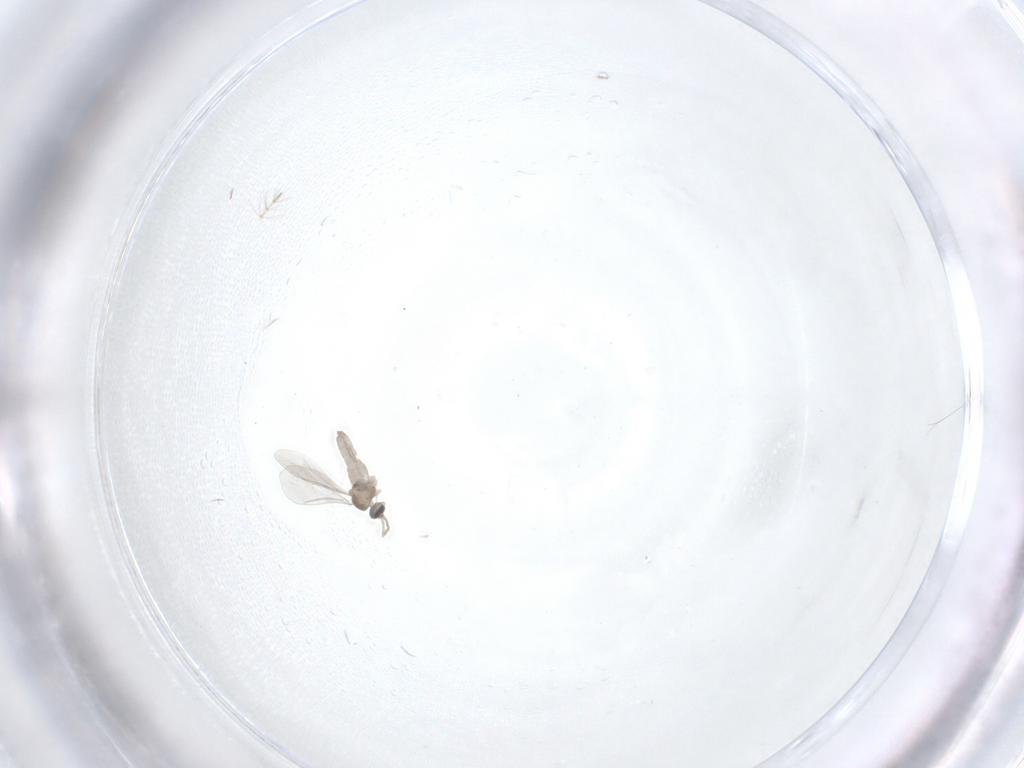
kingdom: Animalia
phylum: Arthropoda
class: Insecta
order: Diptera
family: Cecidomyiidae
